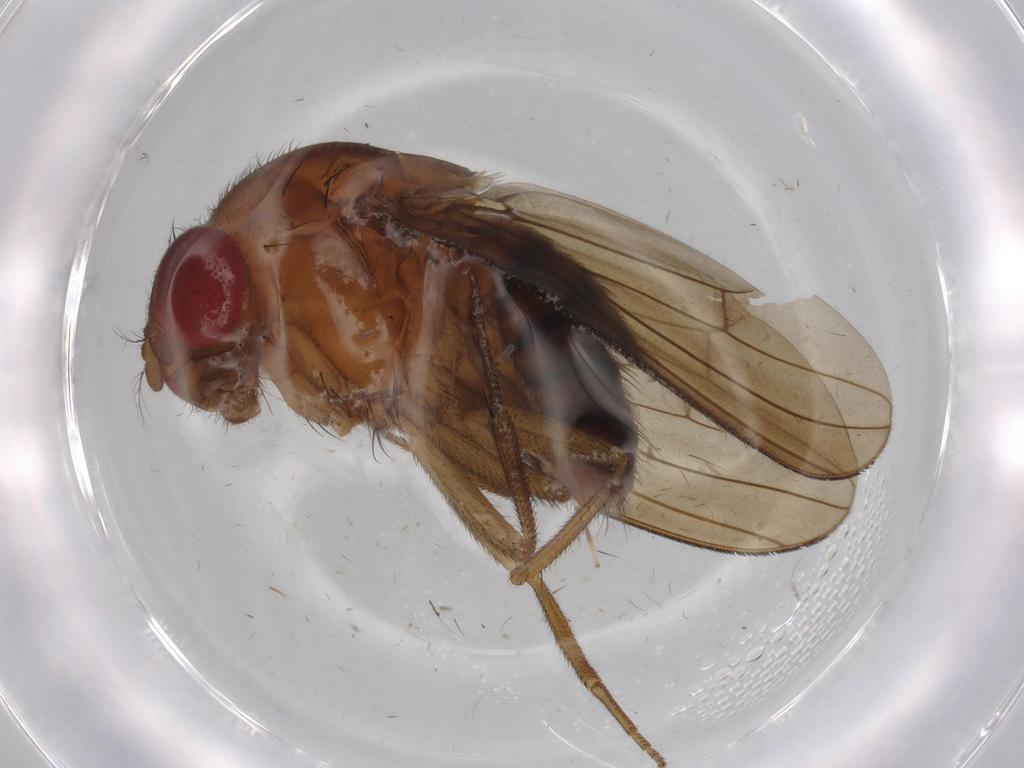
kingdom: Animalia
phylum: Arthropoda
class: Insecta
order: Diptera
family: Drosophilidae
